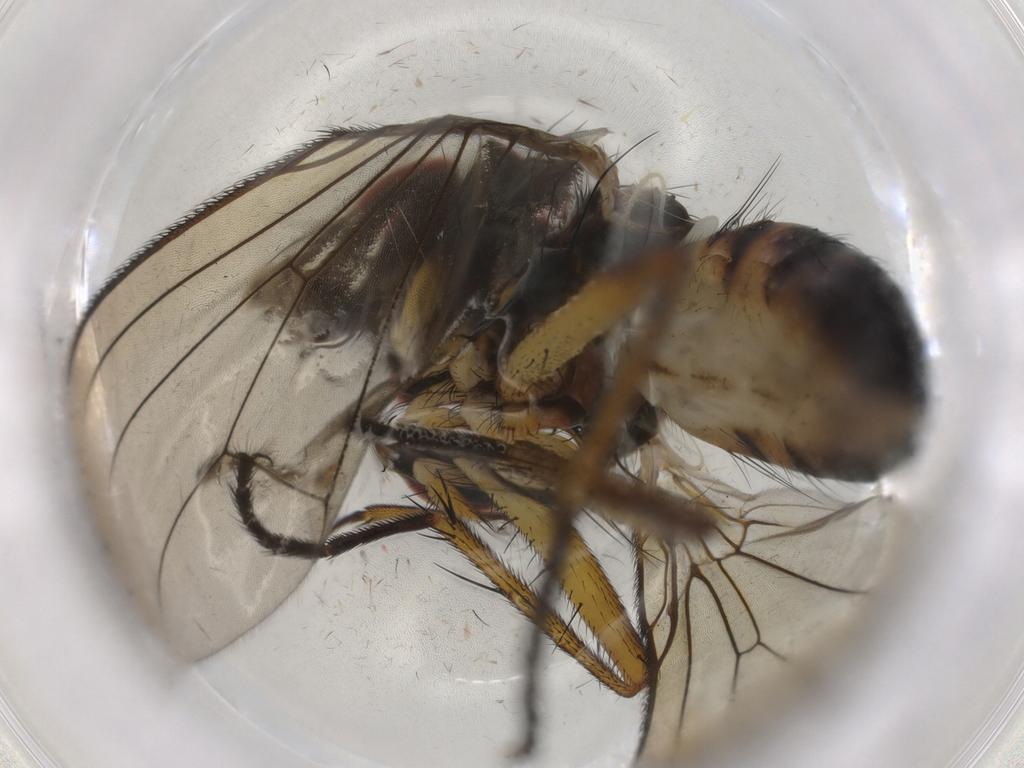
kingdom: Animalia
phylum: Arthropoda
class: Insecta
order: Diptera
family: Muscidae
